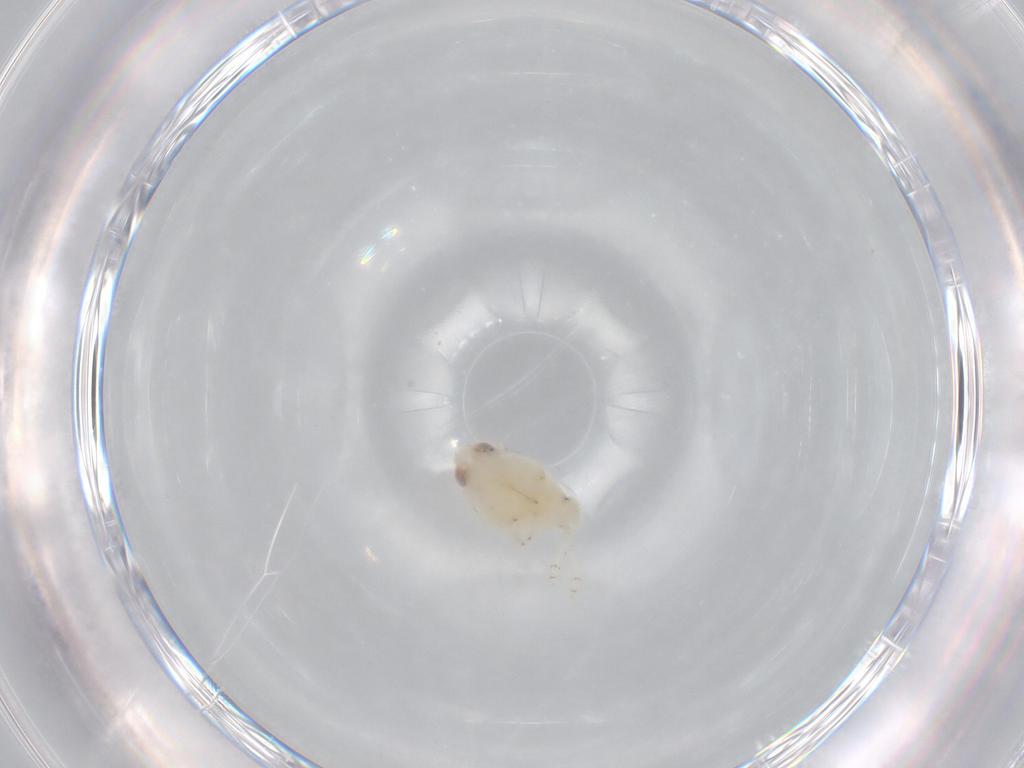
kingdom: Animalia
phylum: Arthropoda
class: Insecta
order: Hemiptera
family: Nogodinidae
